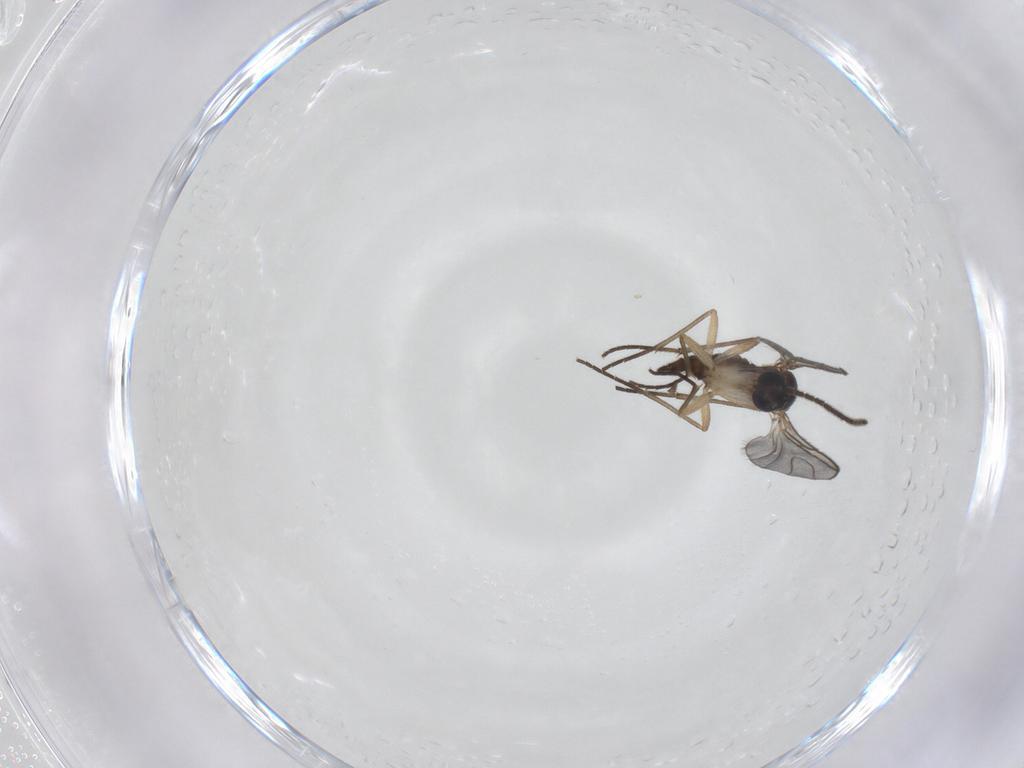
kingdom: Animalia
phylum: Arthropoda
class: Insecta
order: Diptera
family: Sciaridae
